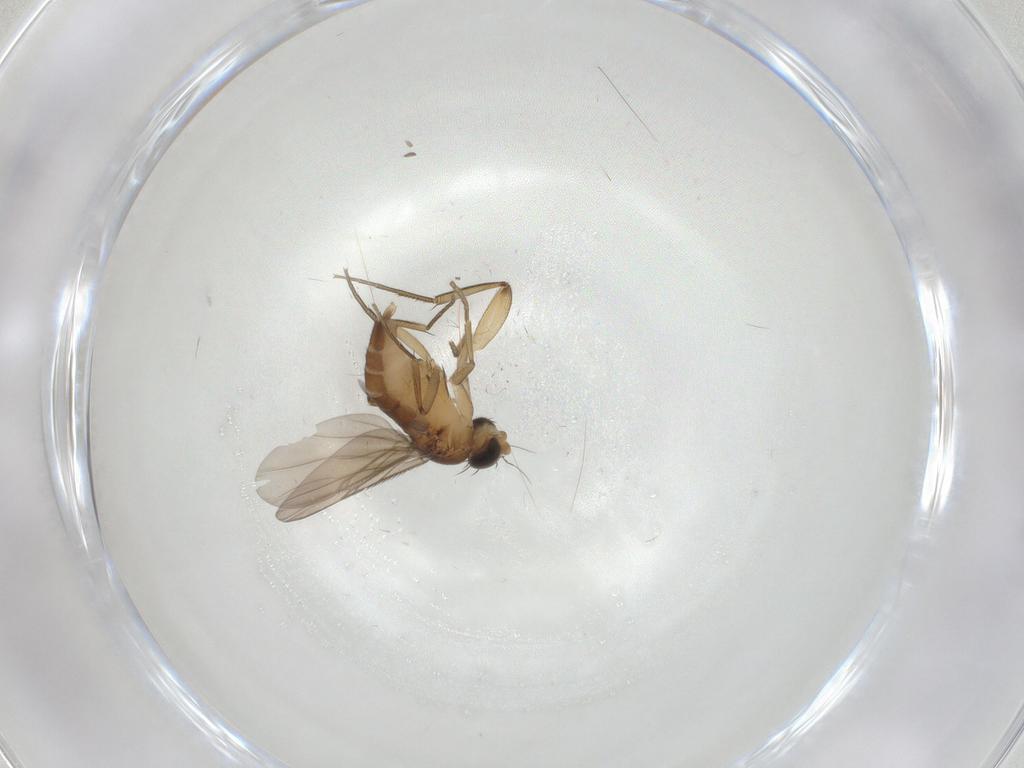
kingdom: Animalia
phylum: Arthropoda
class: Insecta
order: Diptera
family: Phoridae
